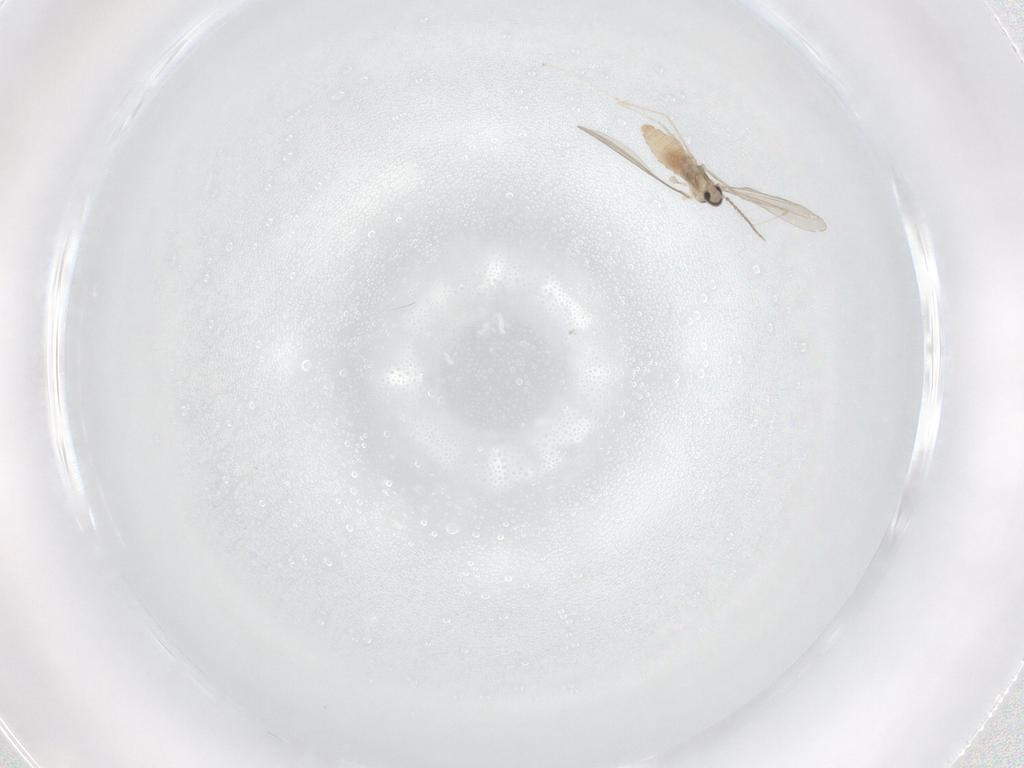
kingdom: Animalia
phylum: Arthropoda
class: Insecta
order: Diptera
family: Cecidomyiidae
